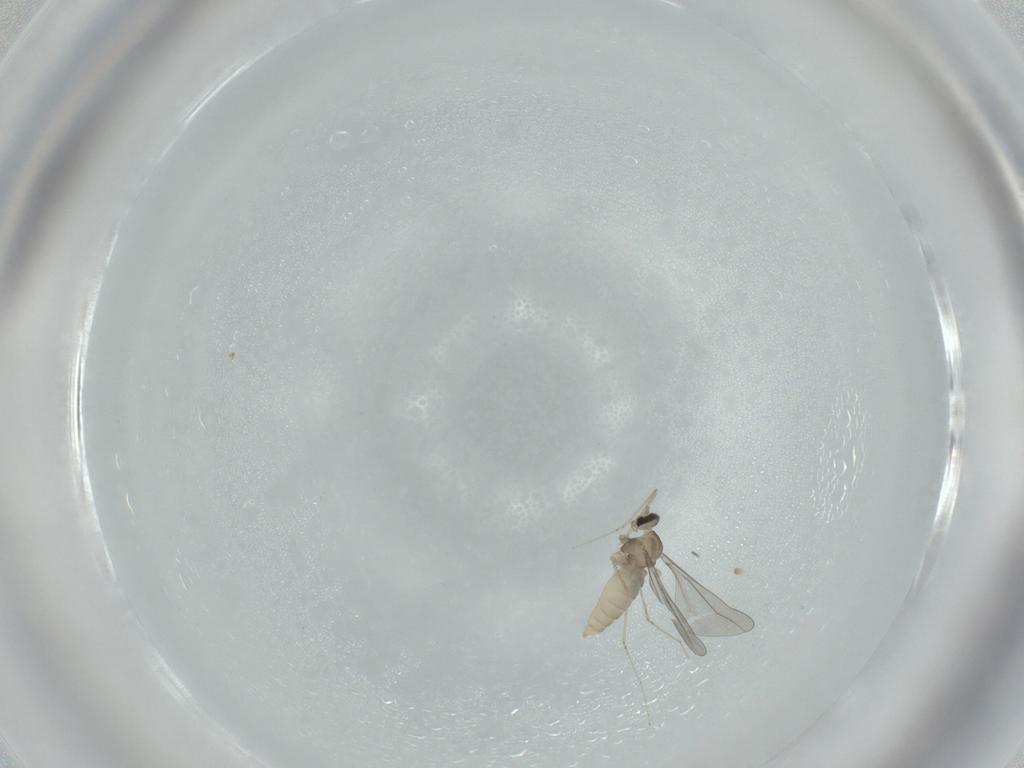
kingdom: Animalia
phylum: Arthropoda
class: Insecta
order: Diptera
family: Cecidomyiidae
